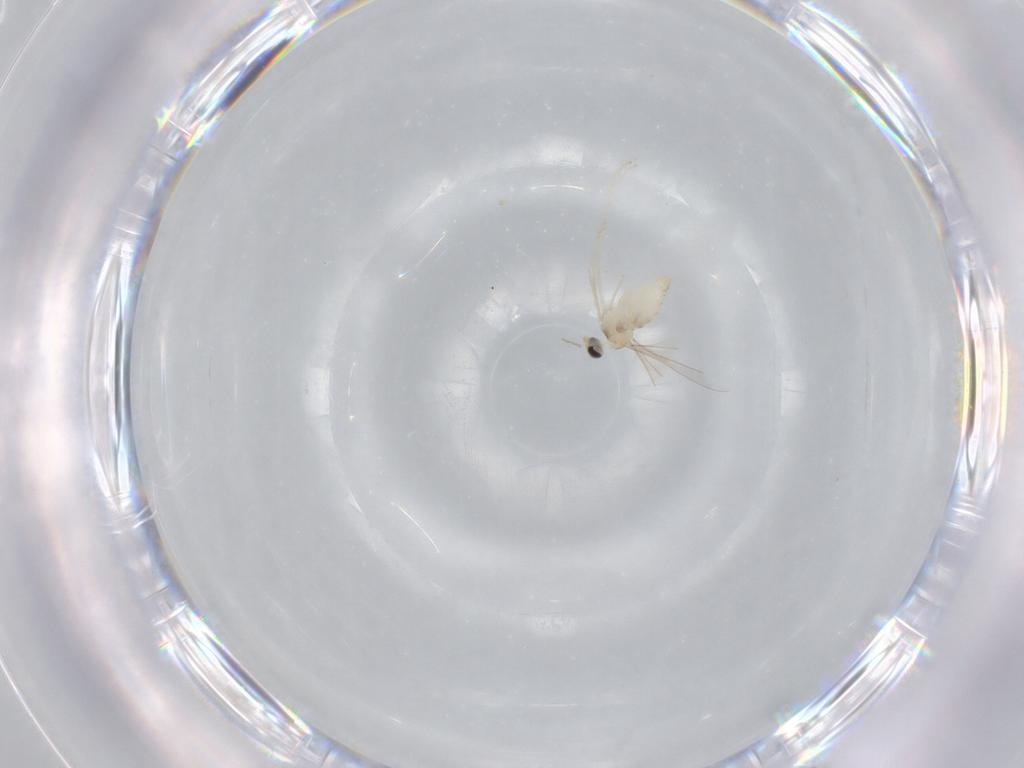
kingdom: Animalia
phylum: Arthropoda
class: Insecta
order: Diptera
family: Cecidomyiidae
